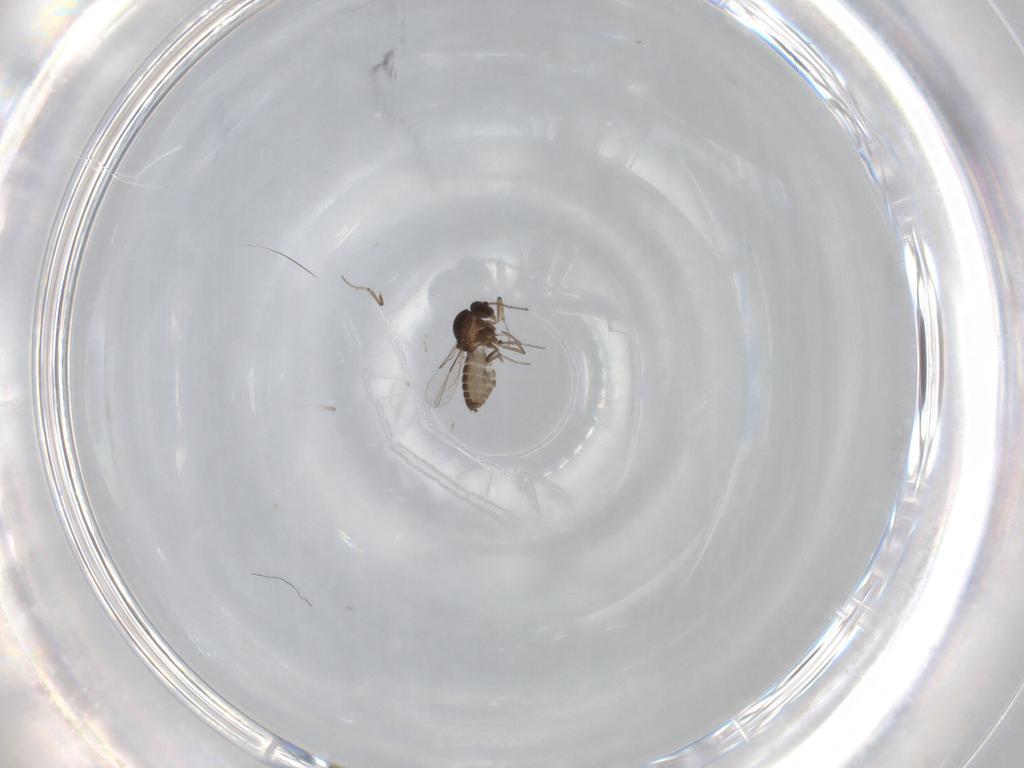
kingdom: Animalia
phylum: Arthropoda
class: Insecta
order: Diptera
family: Ceratopogonidae
